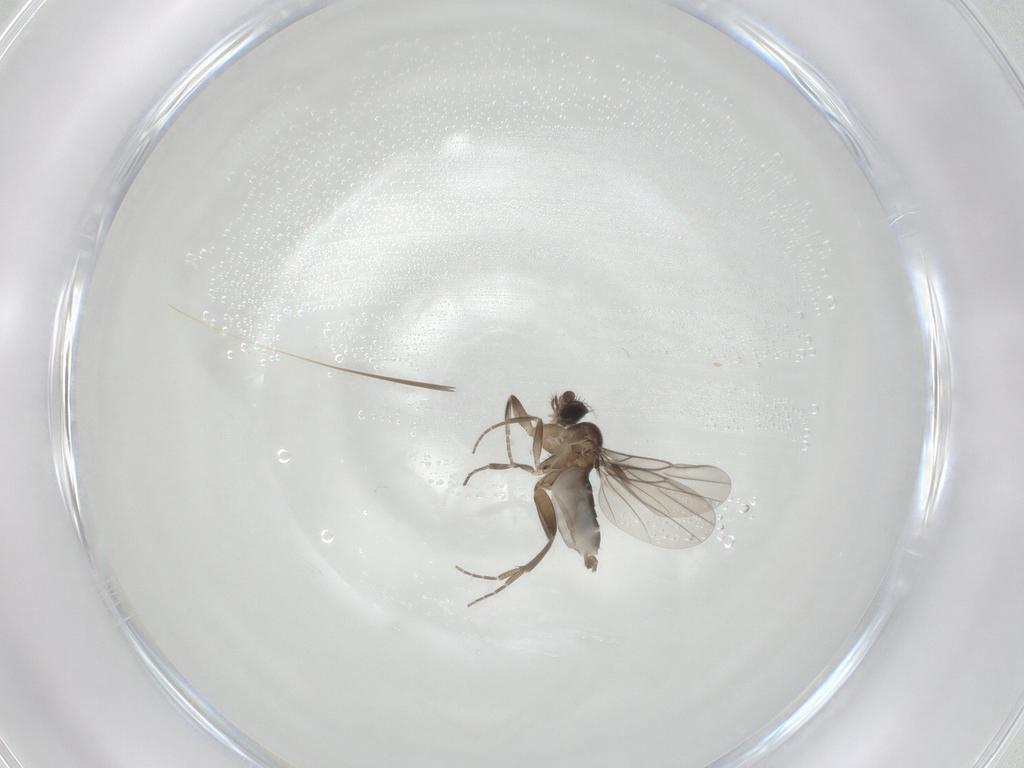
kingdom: Animalia
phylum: Arthropoda
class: Insecta
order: Diptera
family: Phoridae
